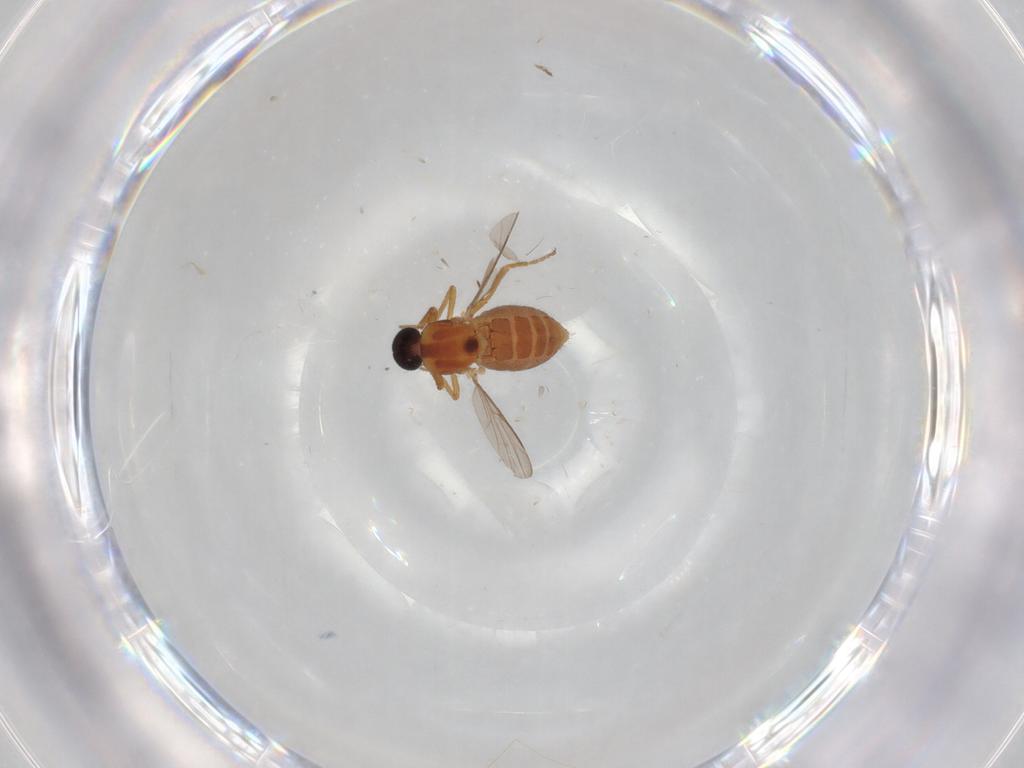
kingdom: Animalia
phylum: Arthropoda
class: Insecta
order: Diptera
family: Ceratopogonidae
